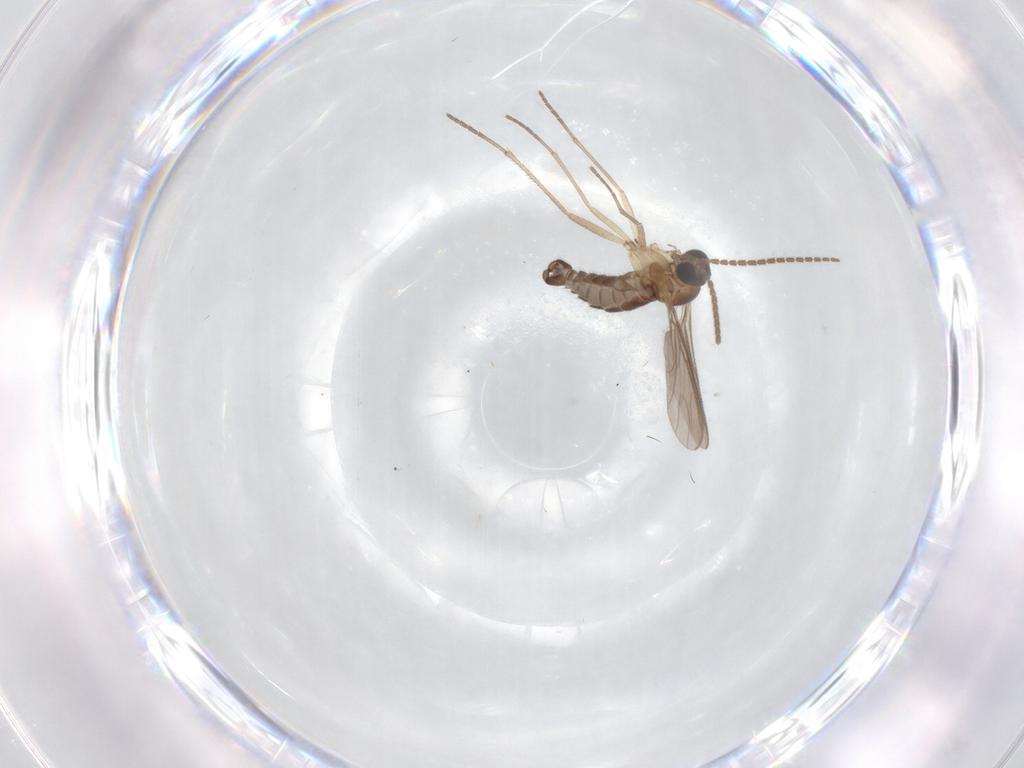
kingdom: Animalia
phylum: Arthropoda
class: Insecta
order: Diptera
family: Sciaridae
